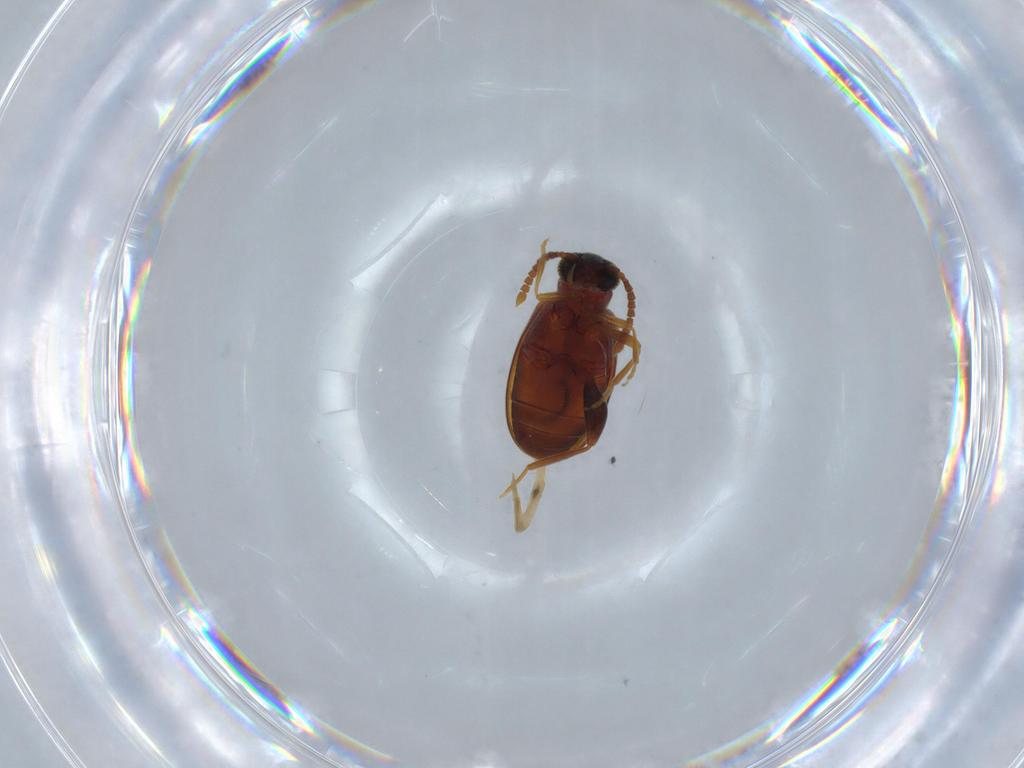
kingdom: Animalia
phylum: Arthropoda
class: Insecta
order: Coleoptera
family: Aderidae
